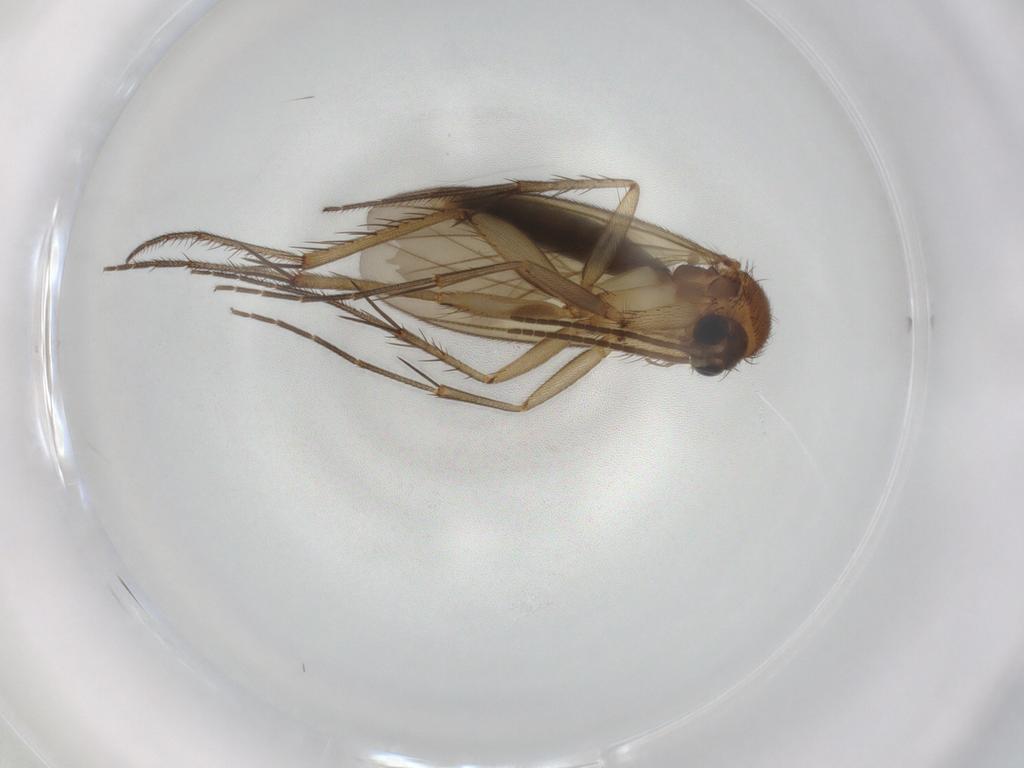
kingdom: Animalia
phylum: Arthropoda
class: Insecta
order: Diptera
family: Mycetophilidae
